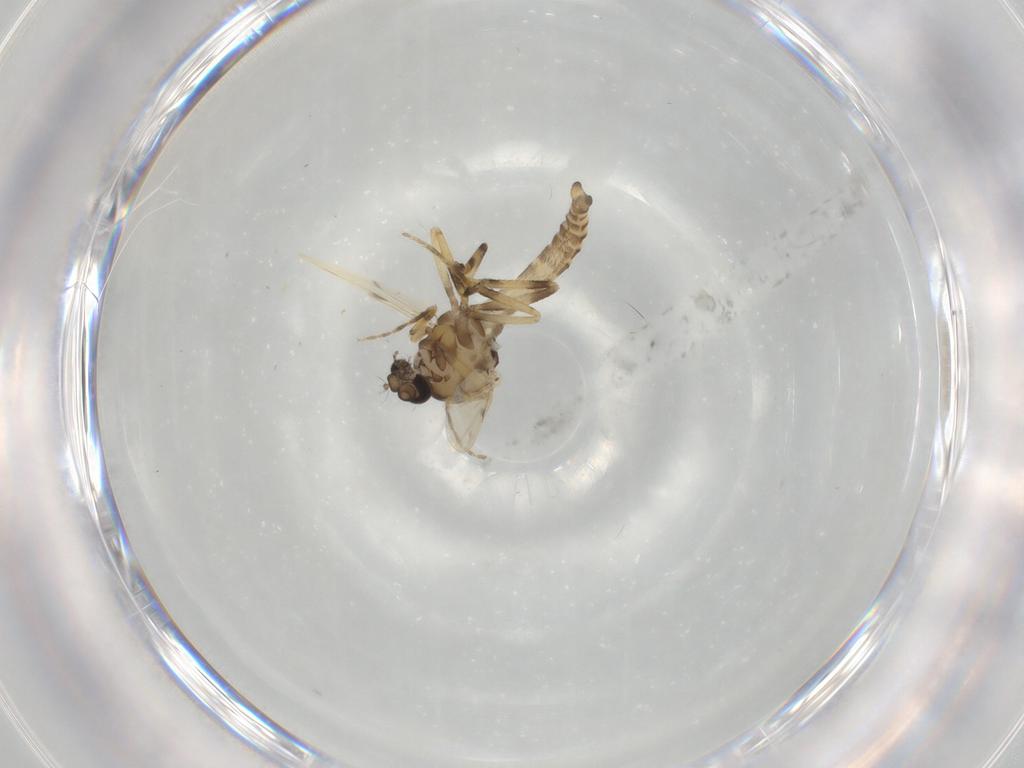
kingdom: Animalia
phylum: Arthropoda
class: Insecta
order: Diptera
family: Ceratopogonidae
